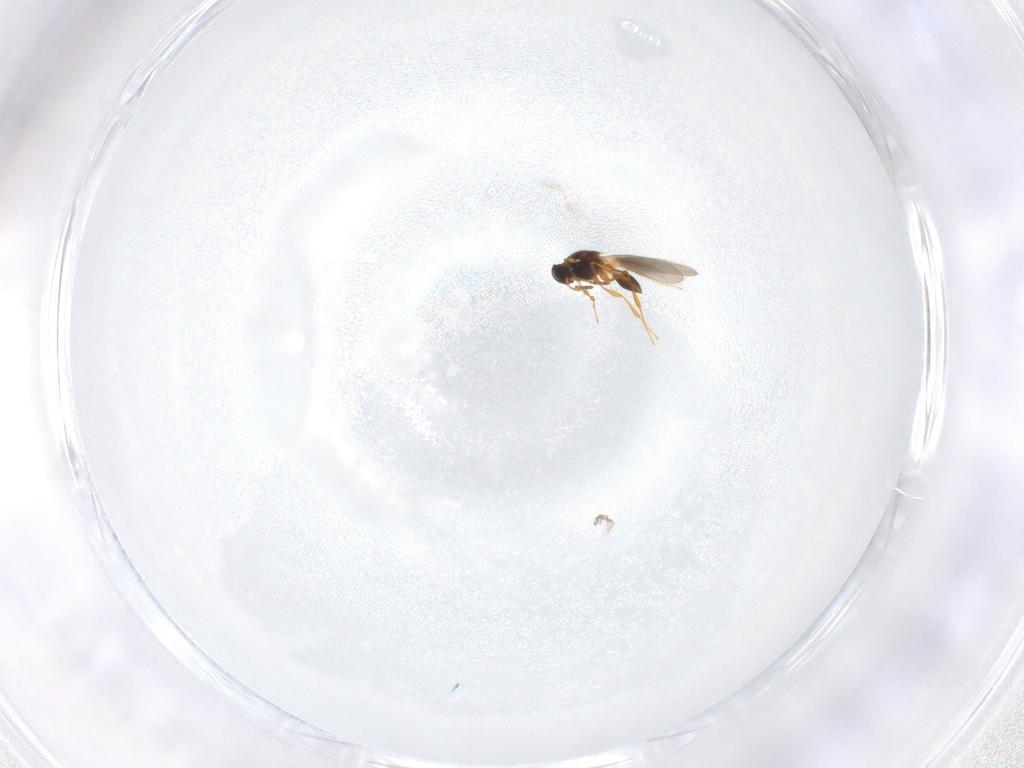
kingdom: Animalia
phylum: Arthropoda
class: Insecta
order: Hymenoptera
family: Platygastridae
